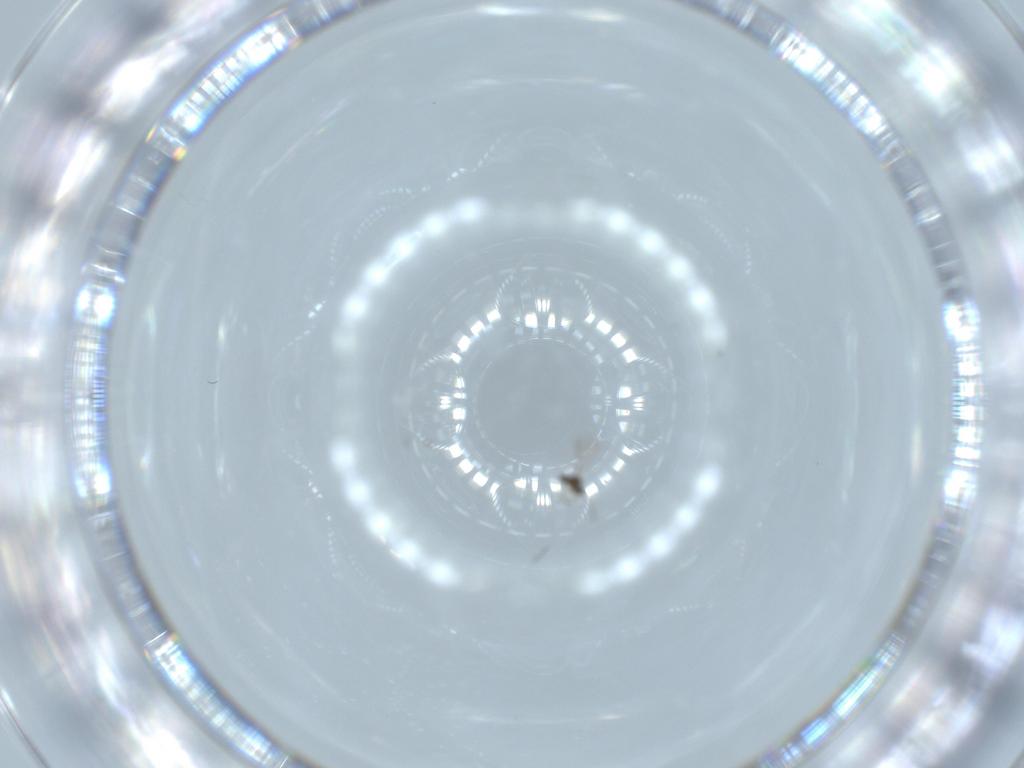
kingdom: Animalia
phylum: Arthropoda
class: Insecta
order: Blattodea
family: Blattidae
